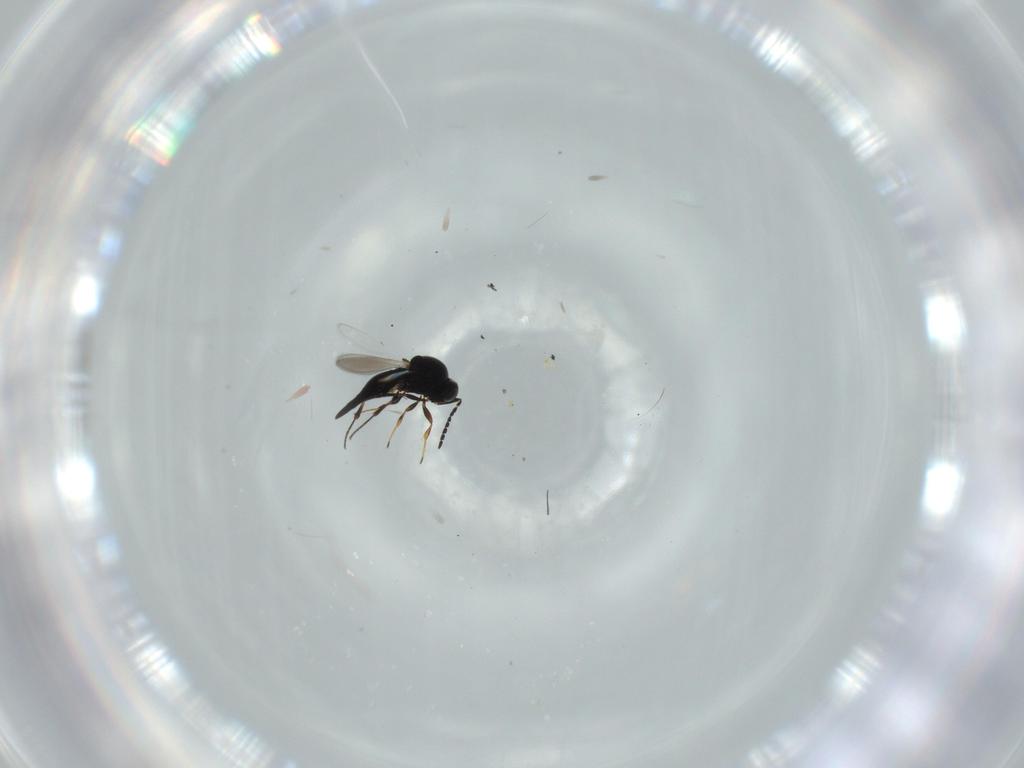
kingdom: Animalia
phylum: Arthropoda
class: Insecta
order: Hymenoptera
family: Platygastridae
